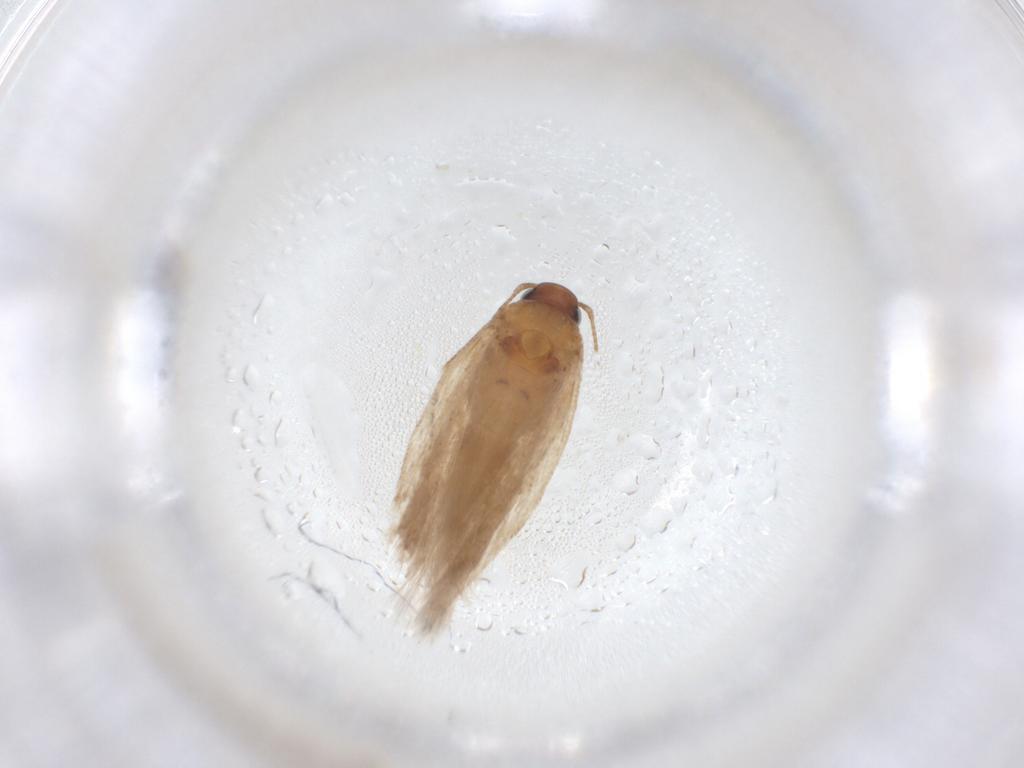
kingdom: Animalia
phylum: Arthropoda
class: Insecta
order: Lepidoptera
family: Gelechiidae
